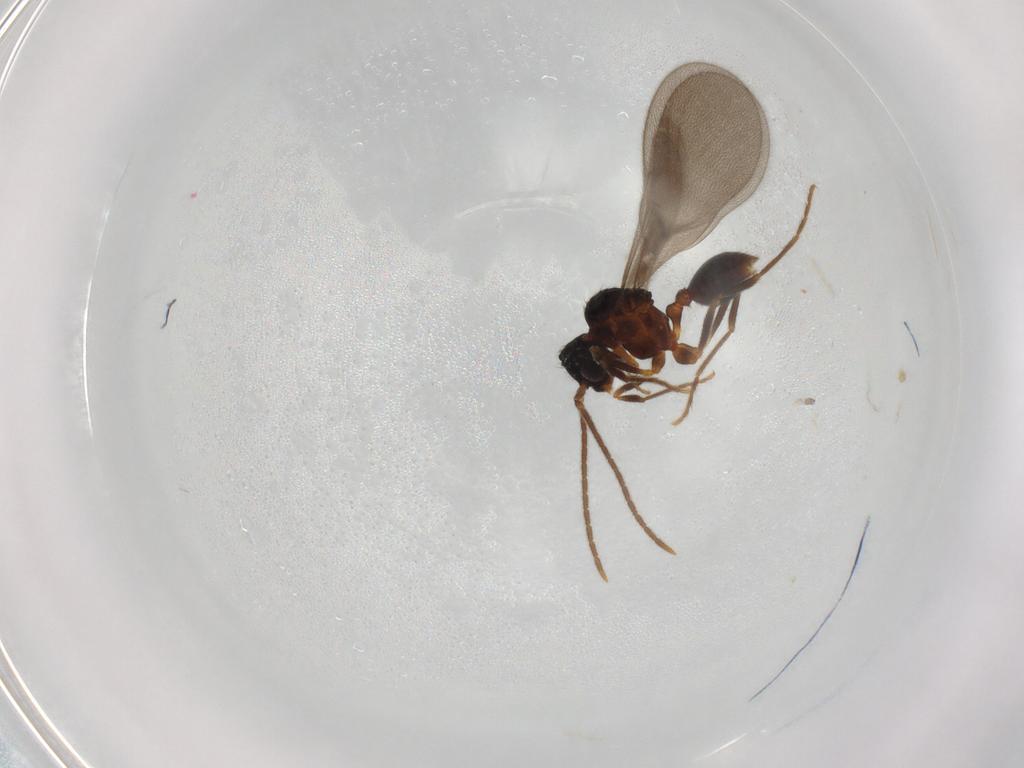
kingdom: Animalia
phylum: Arthropoda
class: Insecta
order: Hymenoptera
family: Formicidae
